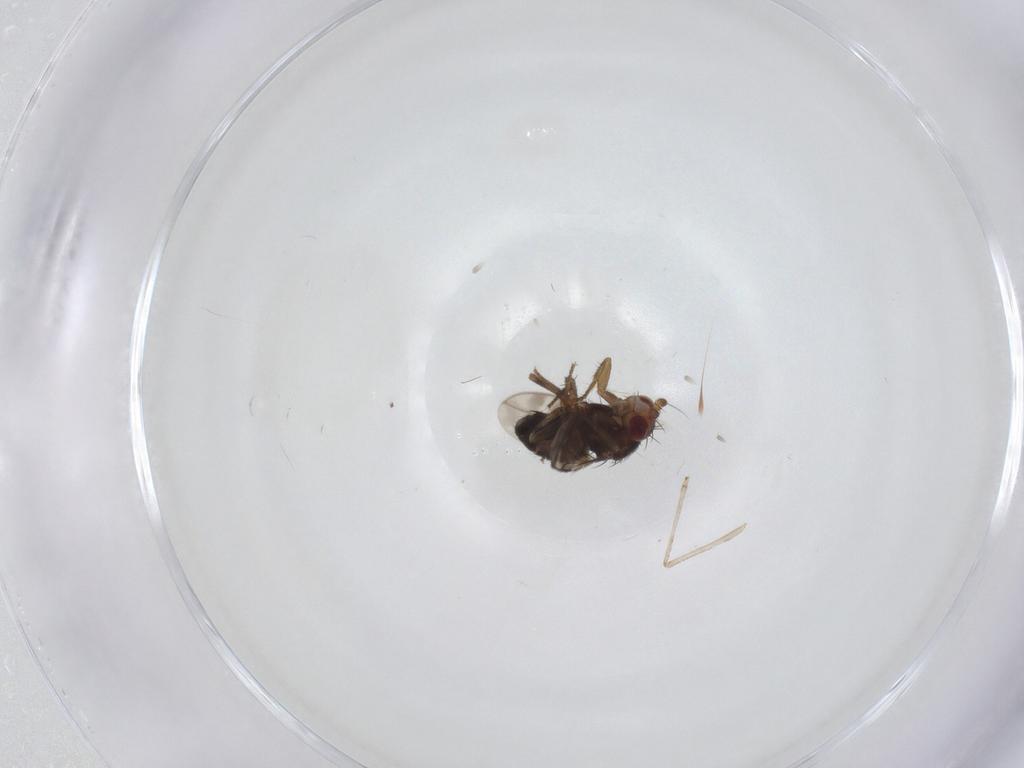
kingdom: Animalia
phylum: Arthropoda
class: Insecta
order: Diptera
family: Sphaeroceridae
